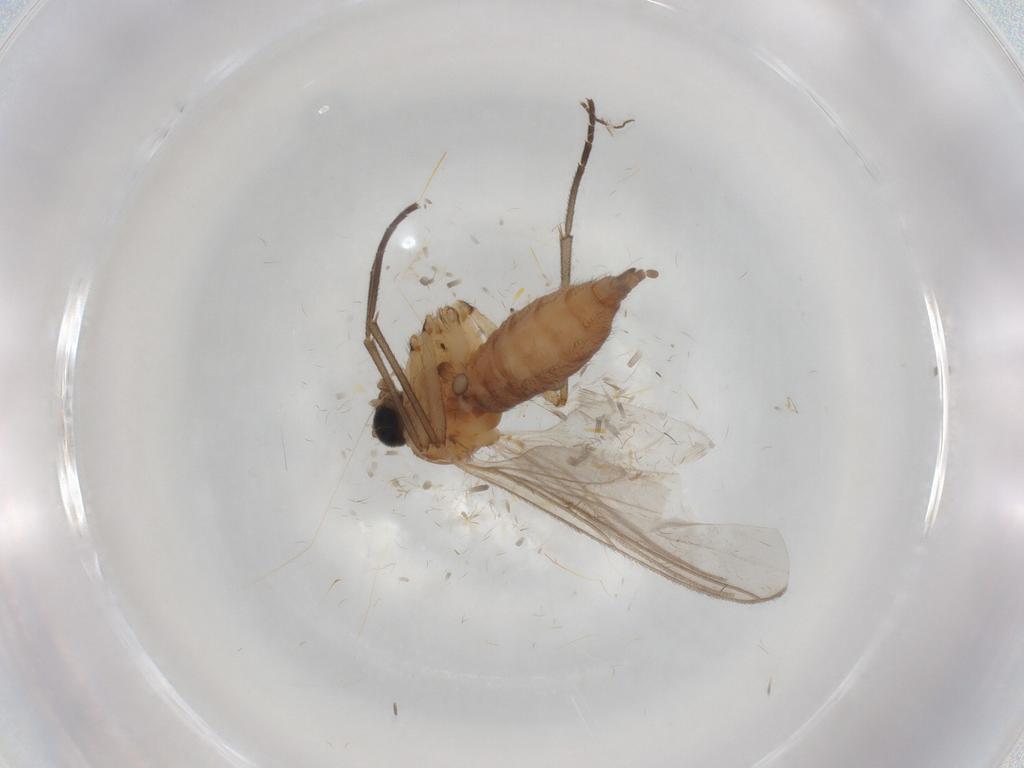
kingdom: Animalia
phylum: Arthropoda
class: Insecta
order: Diptera
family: Sciaridae
